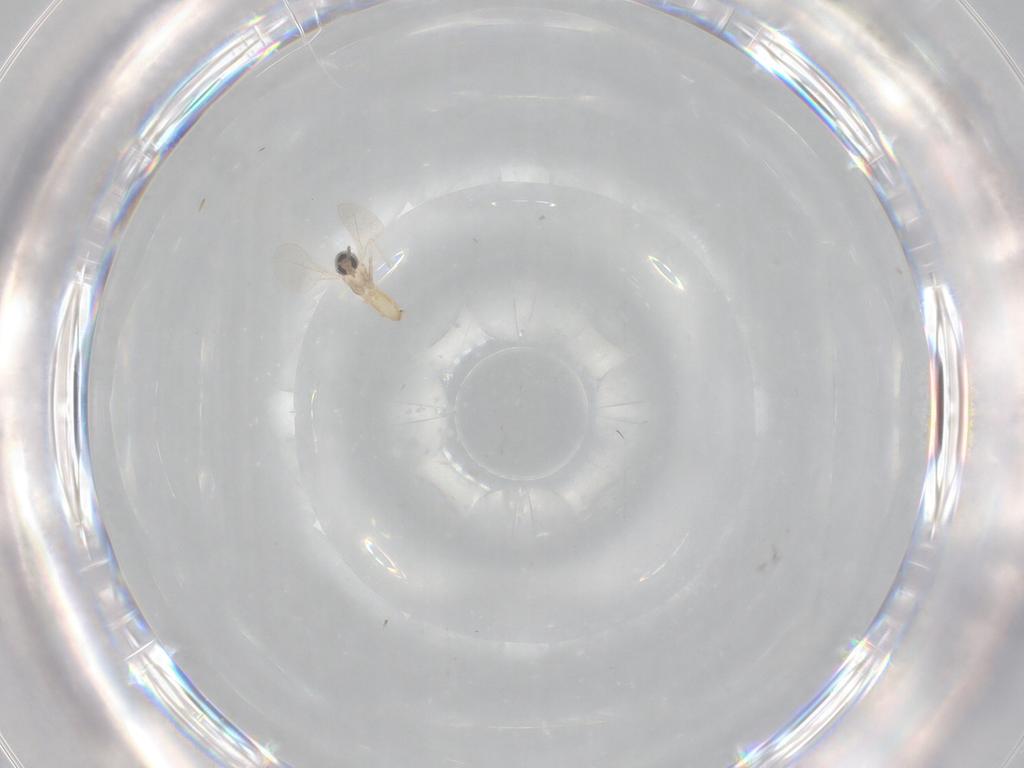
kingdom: Animalia
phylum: Arthropoda
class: Insecta
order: Diptera
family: Cecidomyiidae
